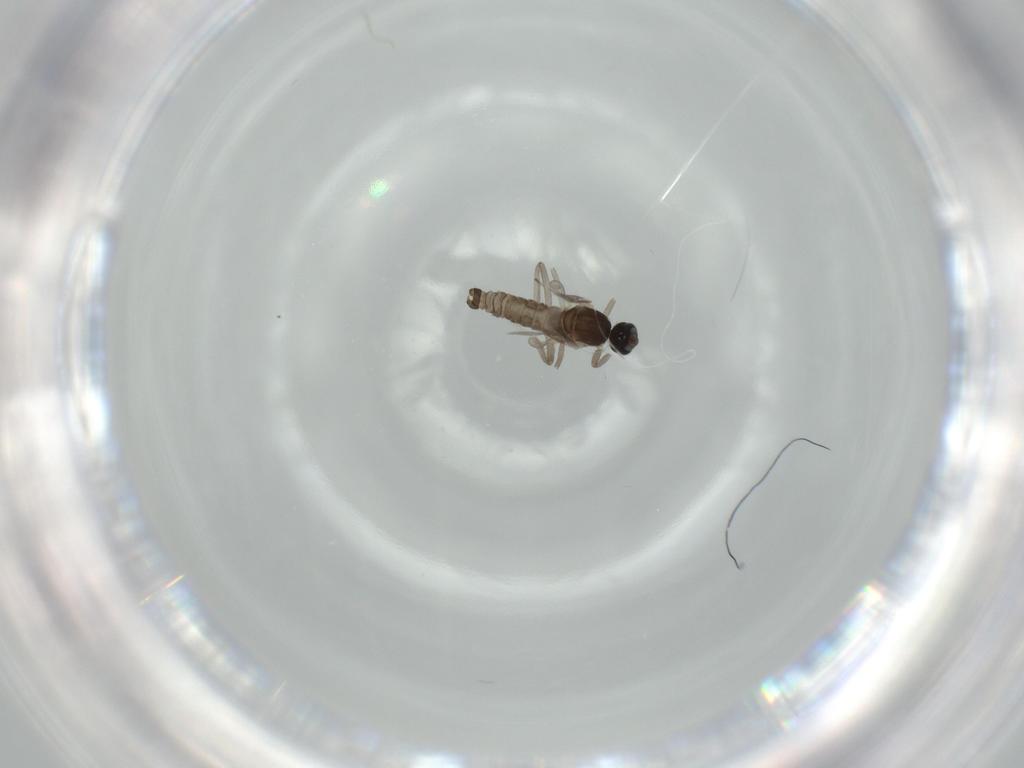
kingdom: Animalia
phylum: Arthropoda
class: Insecta
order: Diptera
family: Cecidomyiidae
